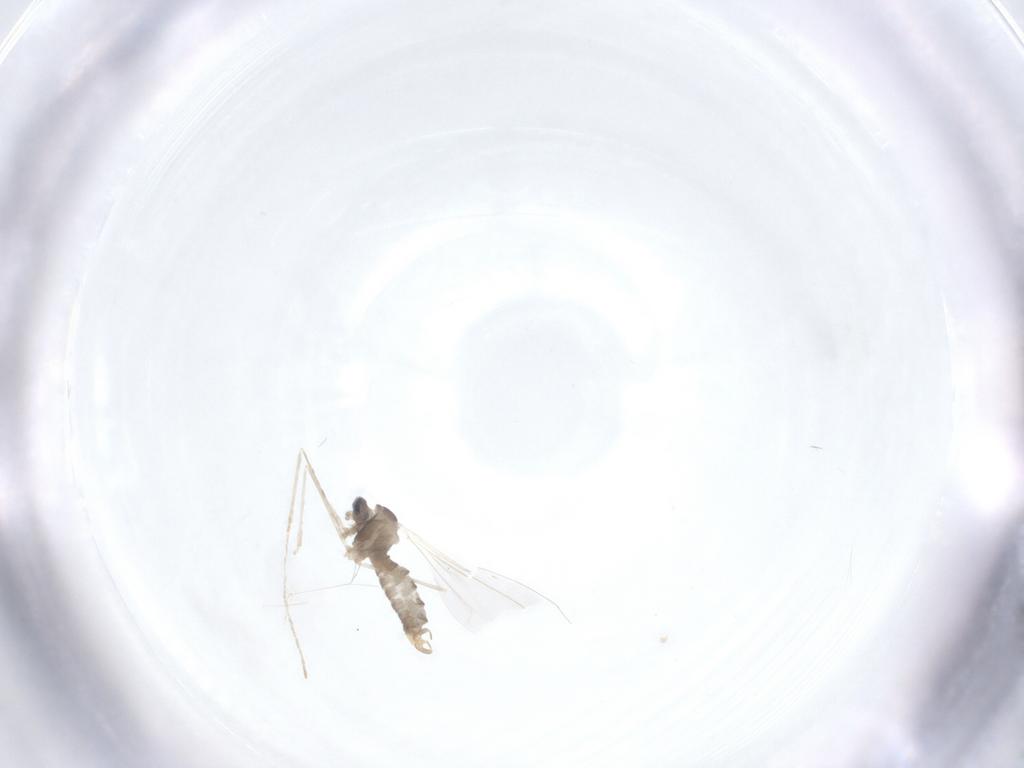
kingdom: Animalia
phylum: Arthropoda
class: Insecta
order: Diptera
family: Cecidomyiidae
